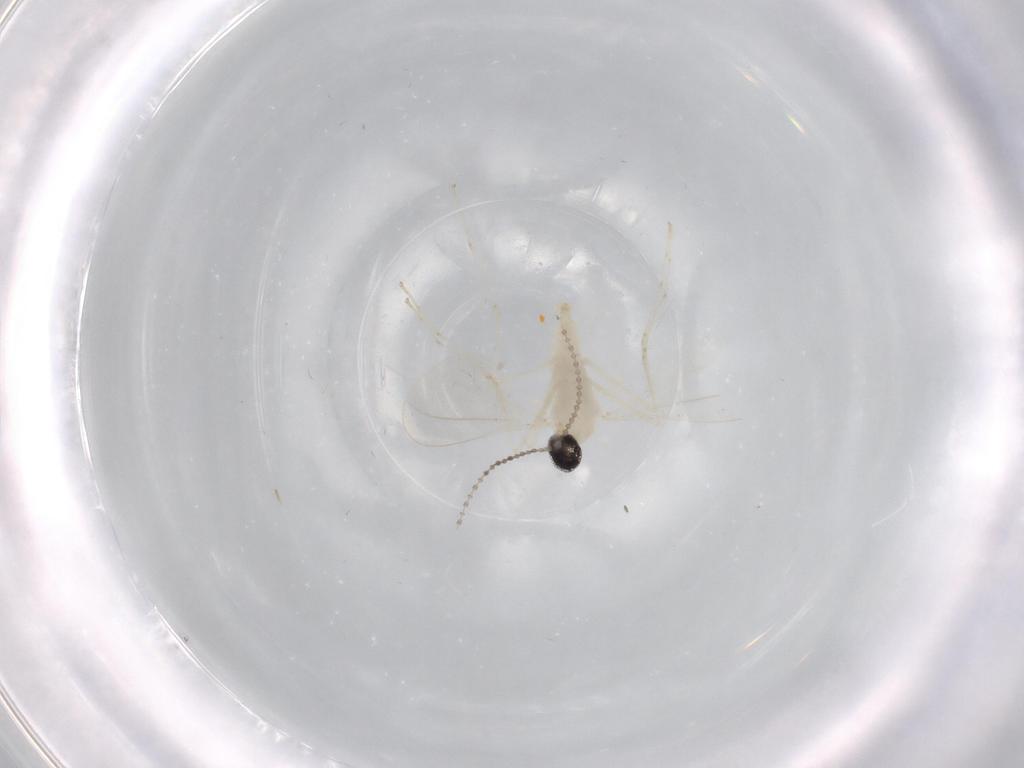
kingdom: Animalia
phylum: Arthropoda
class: Insecta
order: Diptera
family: Cecidomyiidae
